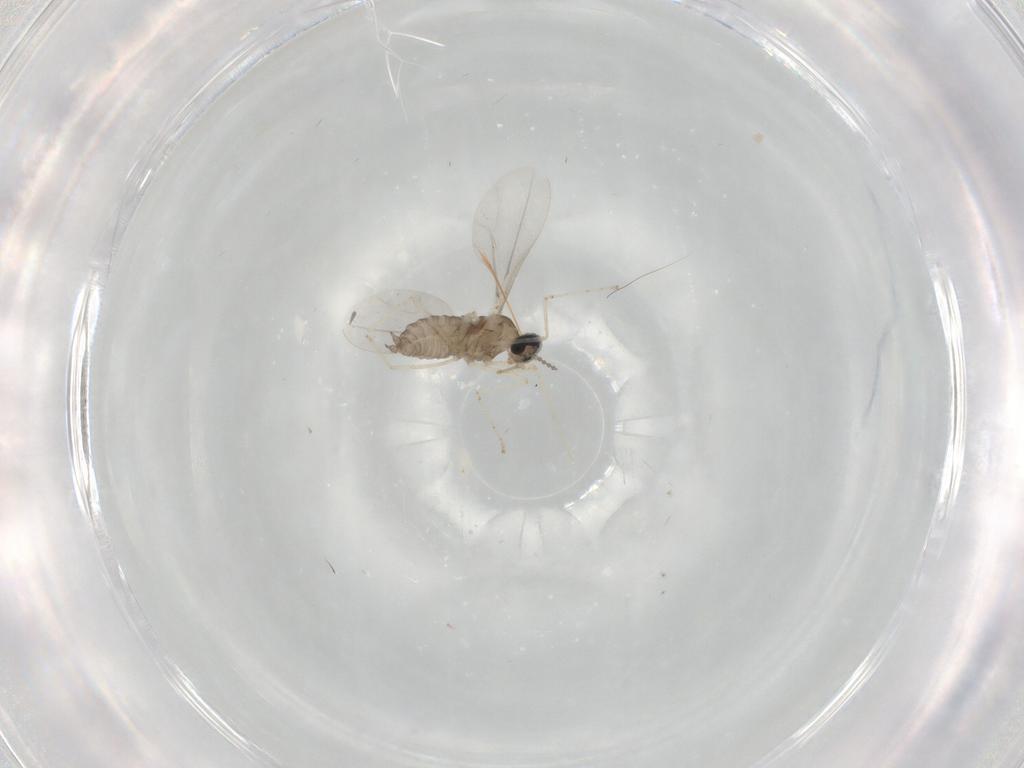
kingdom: Animalia
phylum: Arthropoda
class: Insecta
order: Diptera
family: Cecidomyiidae
